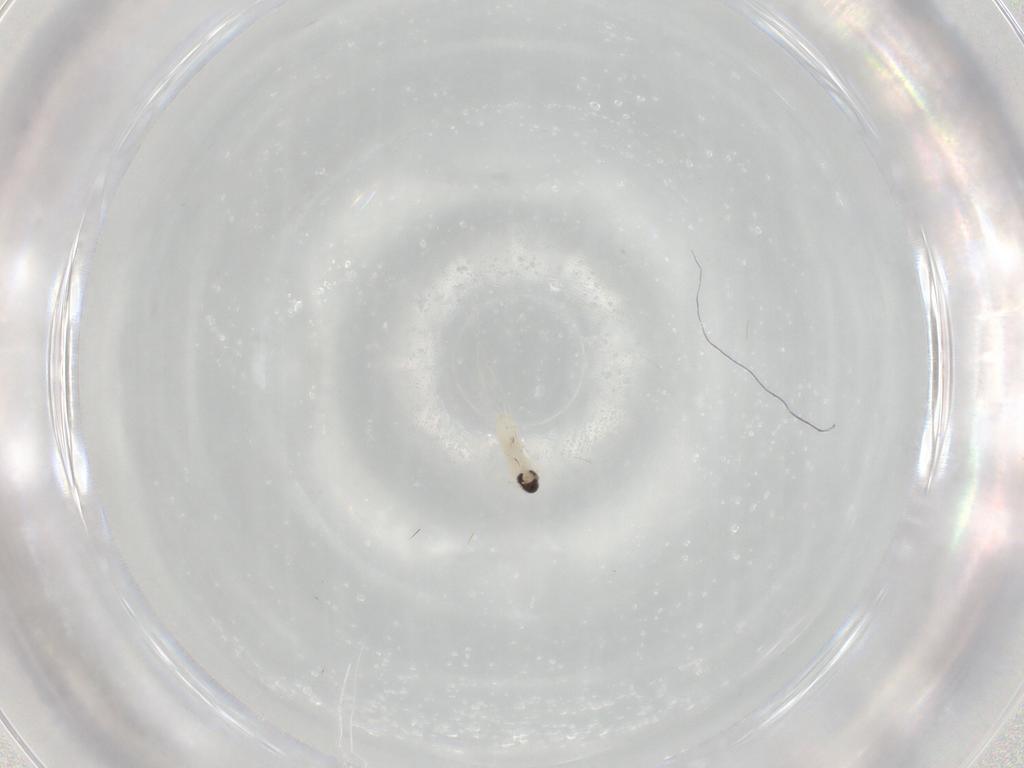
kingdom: Animalia
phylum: Arthropoda
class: Insecta
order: Diptera
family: Cecidomyiidae
